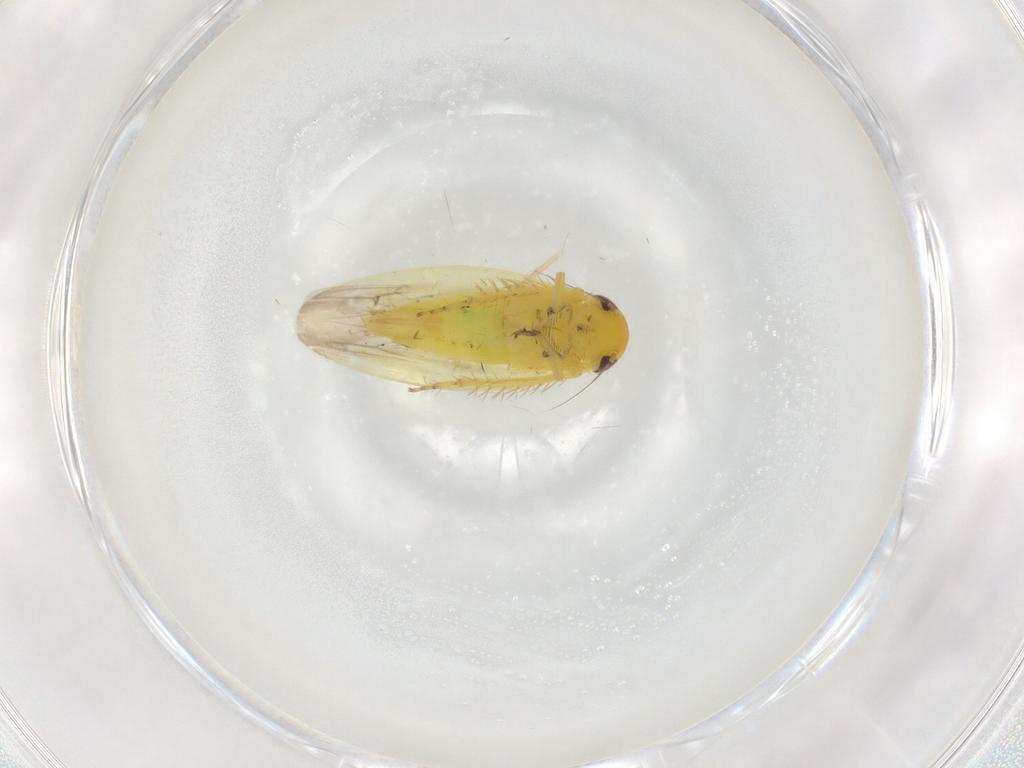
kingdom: Animalia
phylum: Arthropoda
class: Insecta
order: Hemiptera
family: Cicadellidae
